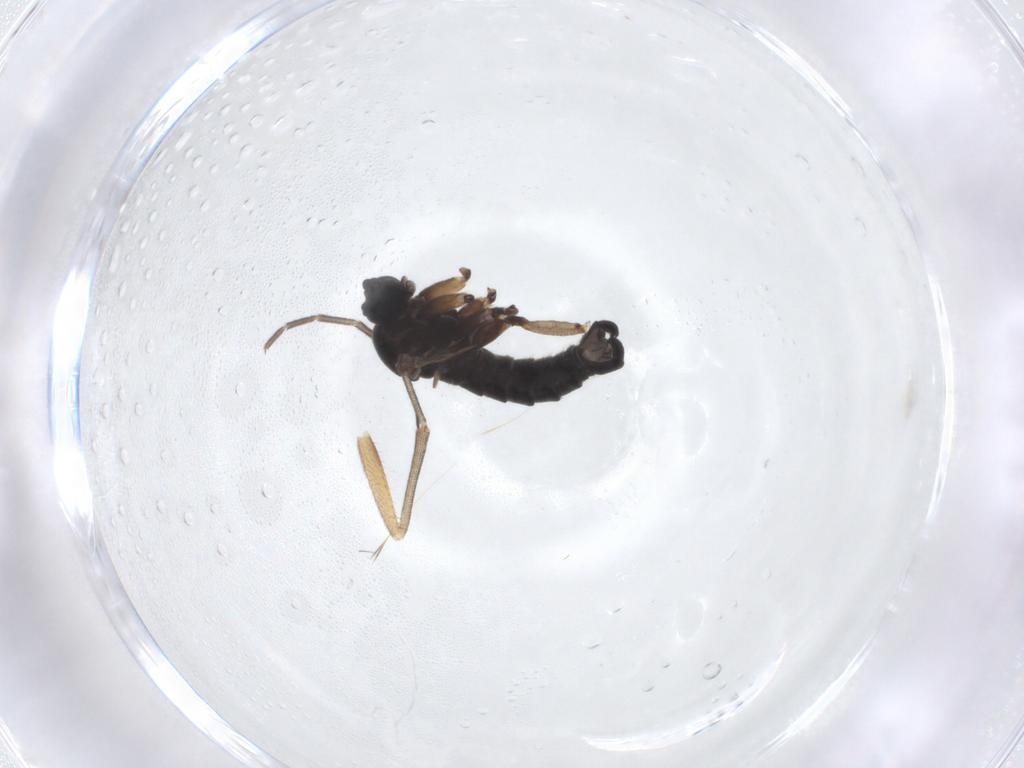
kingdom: Animalia
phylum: Arthropoda
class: Insecta
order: Diptera
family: Sciaridae
